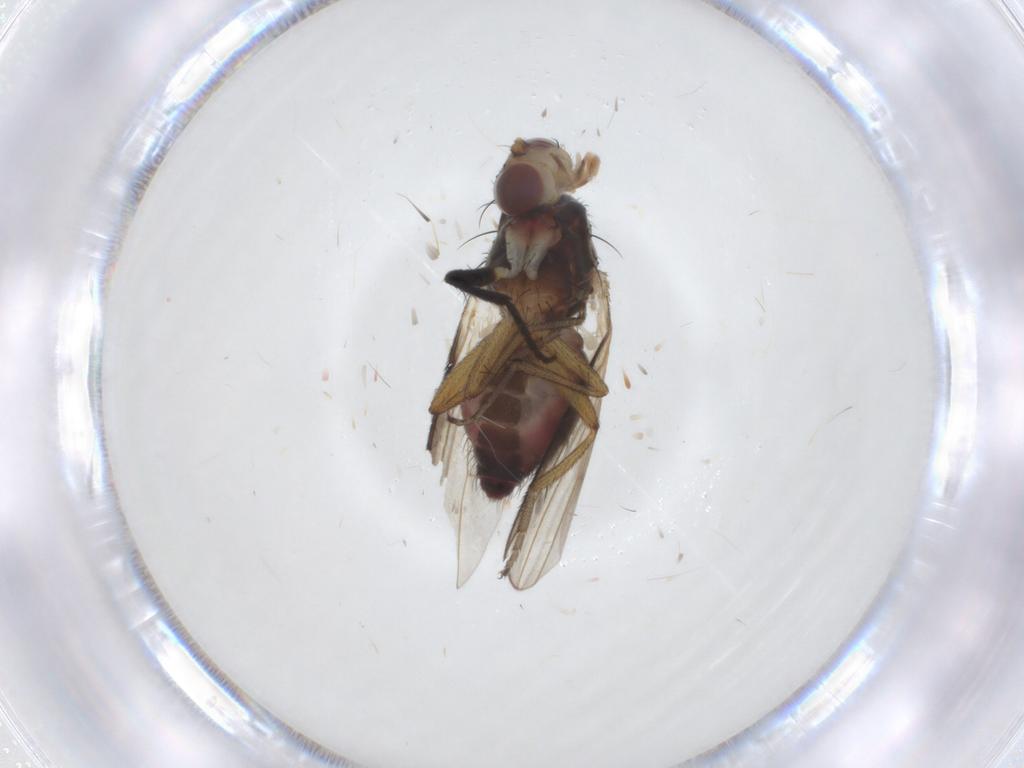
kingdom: Animalia
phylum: Arthropoda
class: Insecta
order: Diptera
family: Heleomyzidae
